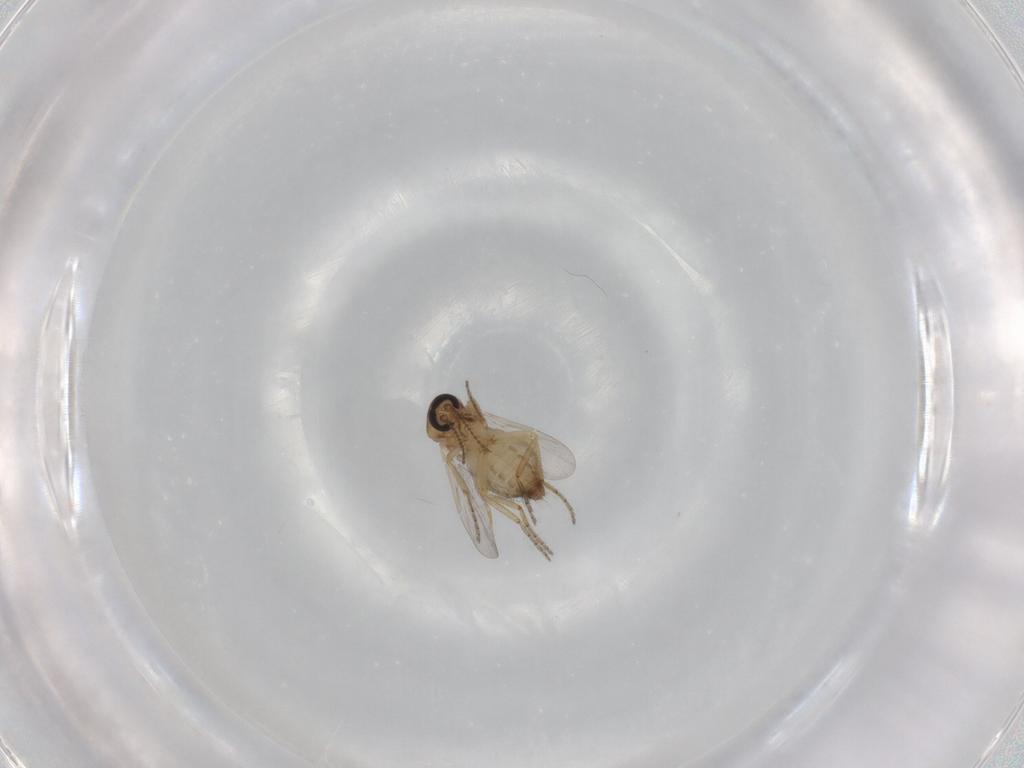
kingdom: Animalia
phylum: Arthropoda
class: Insecta
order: Diptera
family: Ceratopogonidae
